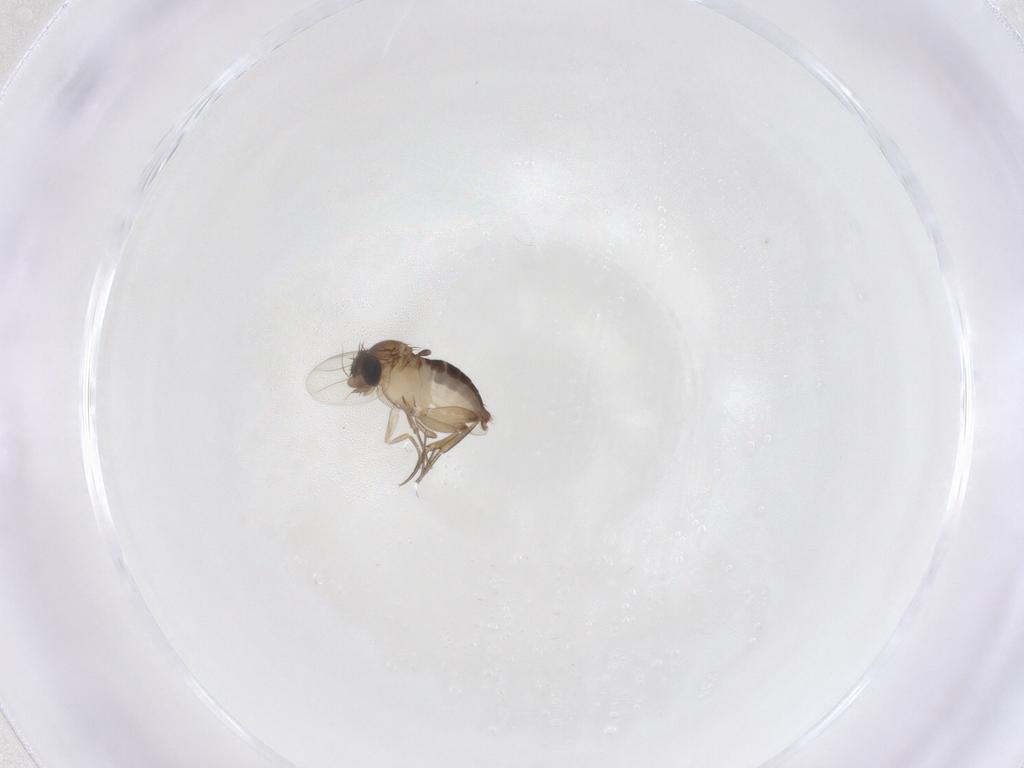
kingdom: Animalia
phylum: Arthropoda
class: Insecta
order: Diptera
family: Phoridae
